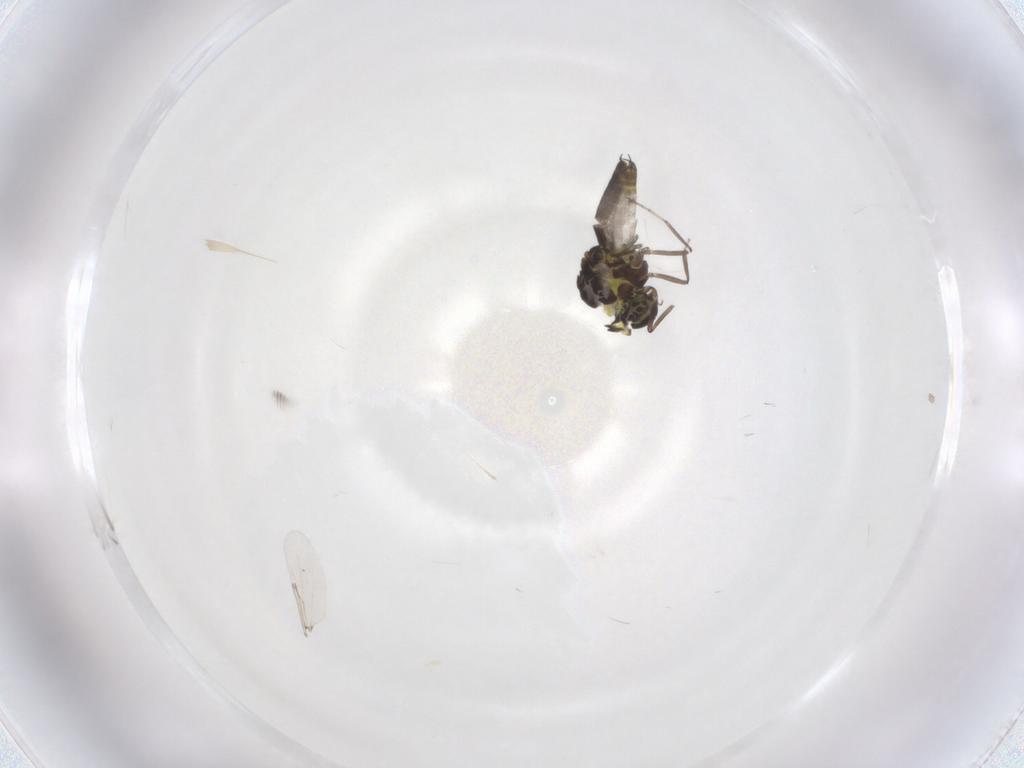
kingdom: Animalia
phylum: Arthropoda
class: Insecta
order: Diptera
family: Ceratopogonidae
